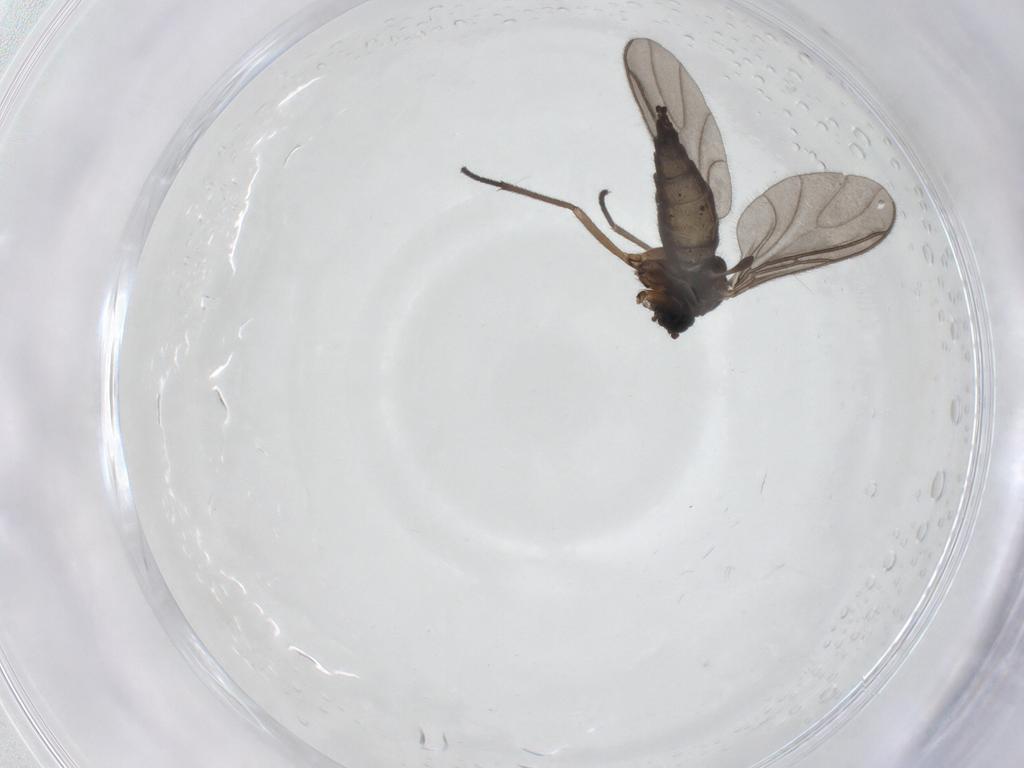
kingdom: Animalia
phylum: Arthropoda
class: Insecta
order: Diptera
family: Sciaridae
